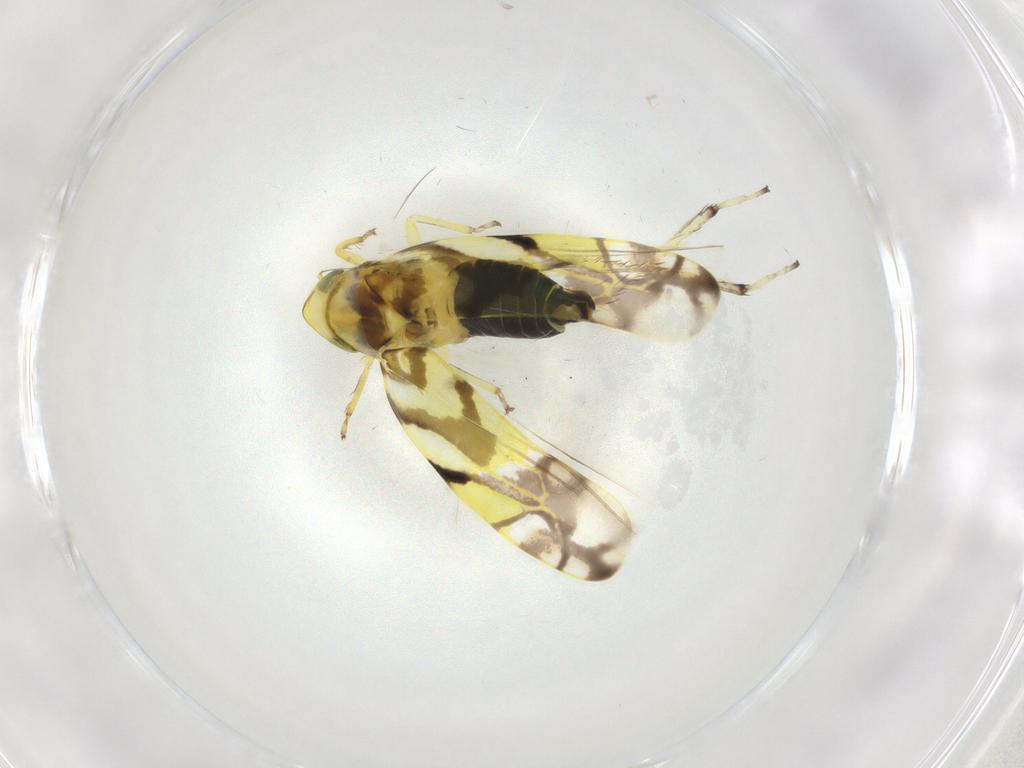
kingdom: Animalia
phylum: Arthropoda
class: Insecta
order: Hemiptera
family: Cicadellidae
